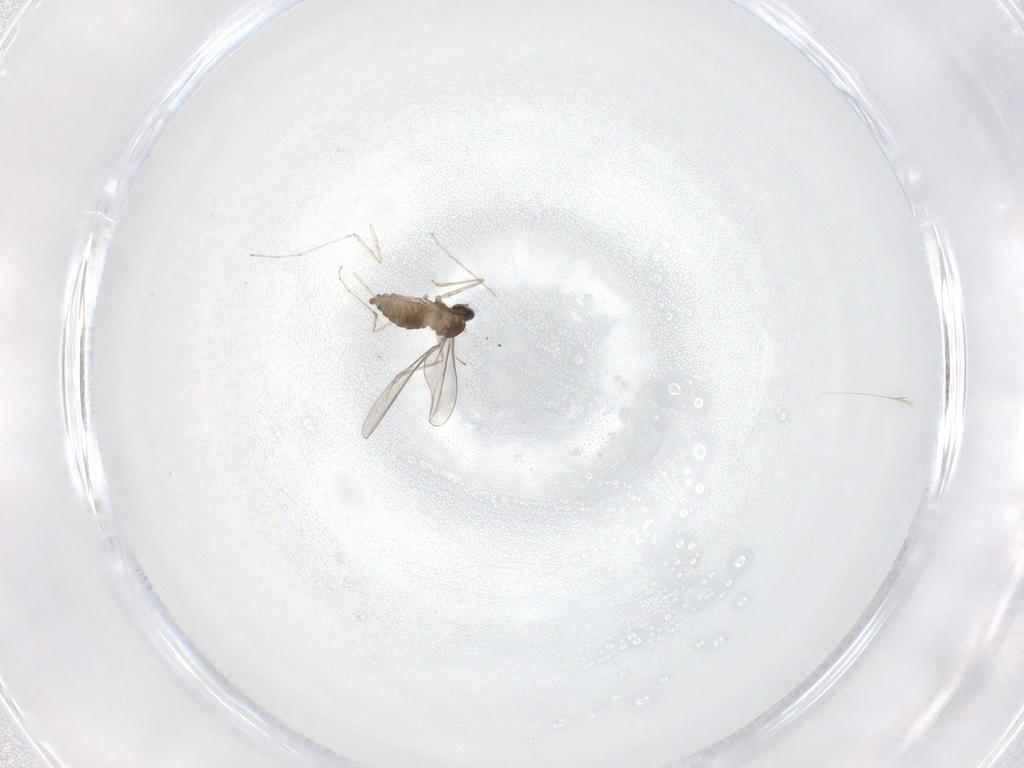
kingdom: Animalia
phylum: Arthropoda
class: Insecta
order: Diptera
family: Cecidomyiidae
